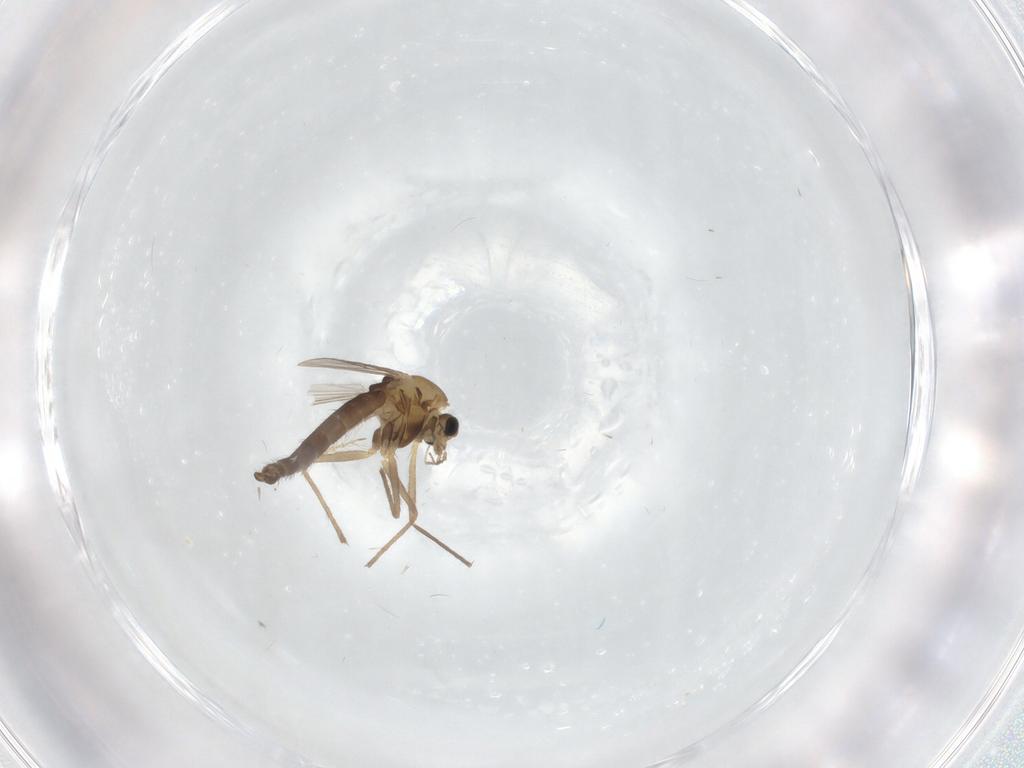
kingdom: Animalia
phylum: Arthropoda
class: Insecta
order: Diptera
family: Chironomidae
